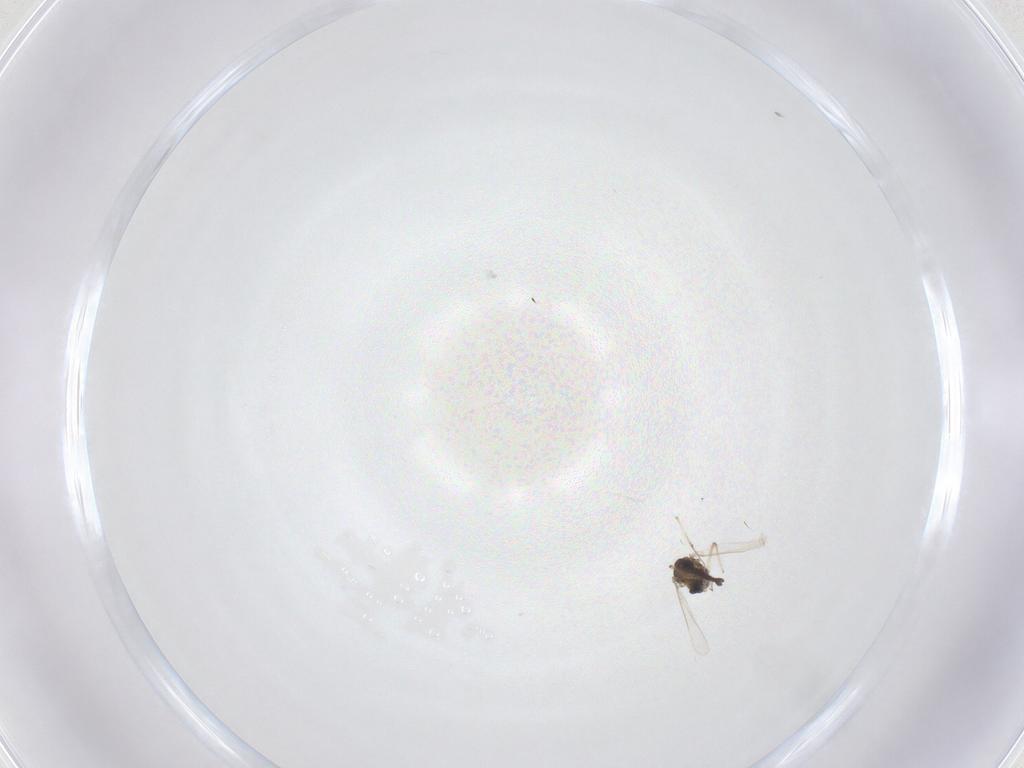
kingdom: Animalia
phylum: Arthropoda
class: Insecta
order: Diptera
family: Chironomidae
